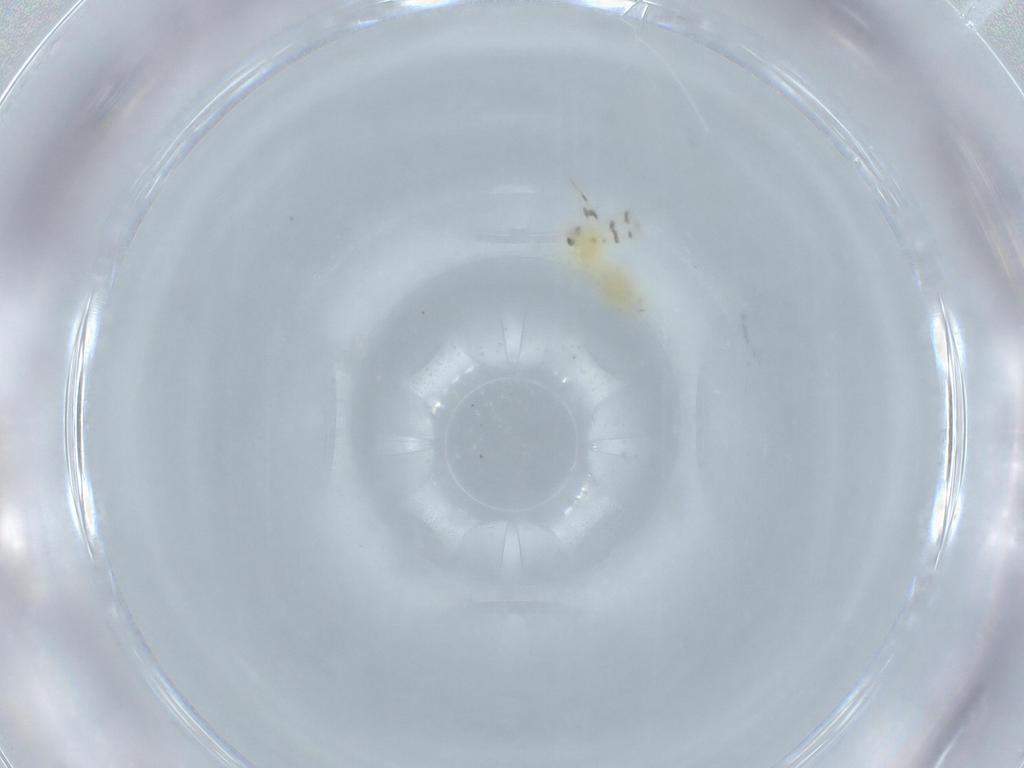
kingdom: Animalia
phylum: Arthropoda
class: Insecta
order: Hemiptera
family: Aleyrodidae
